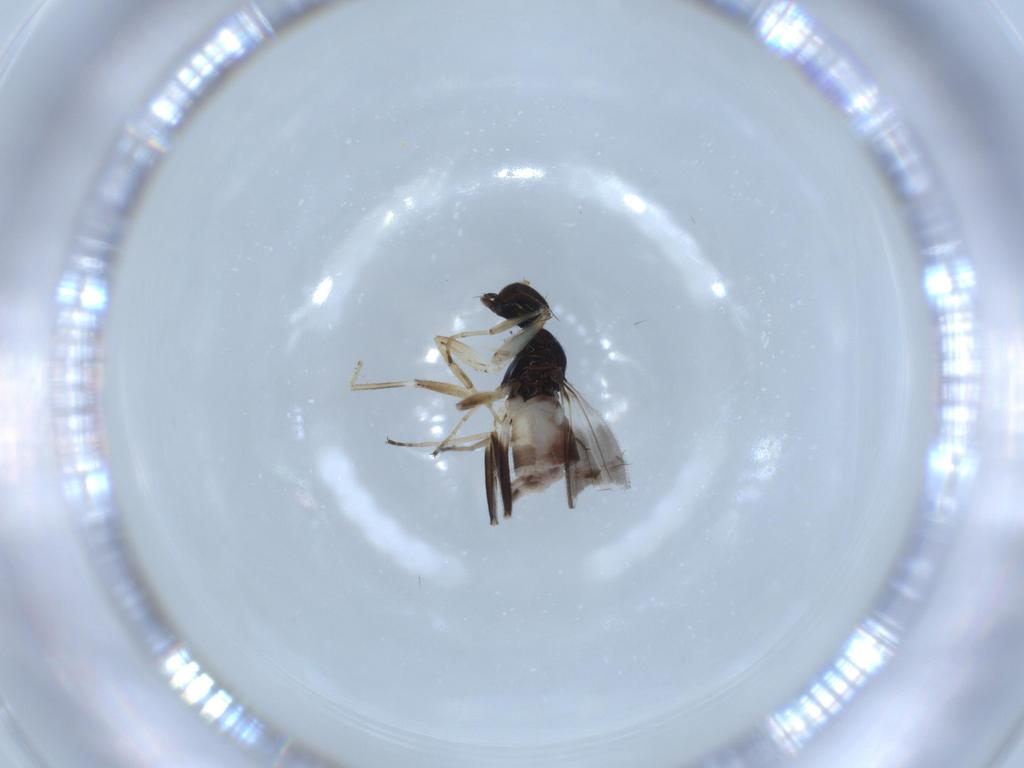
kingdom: Animalia
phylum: Arthropoda
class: Insecta
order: Diptera
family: Hybotidae
